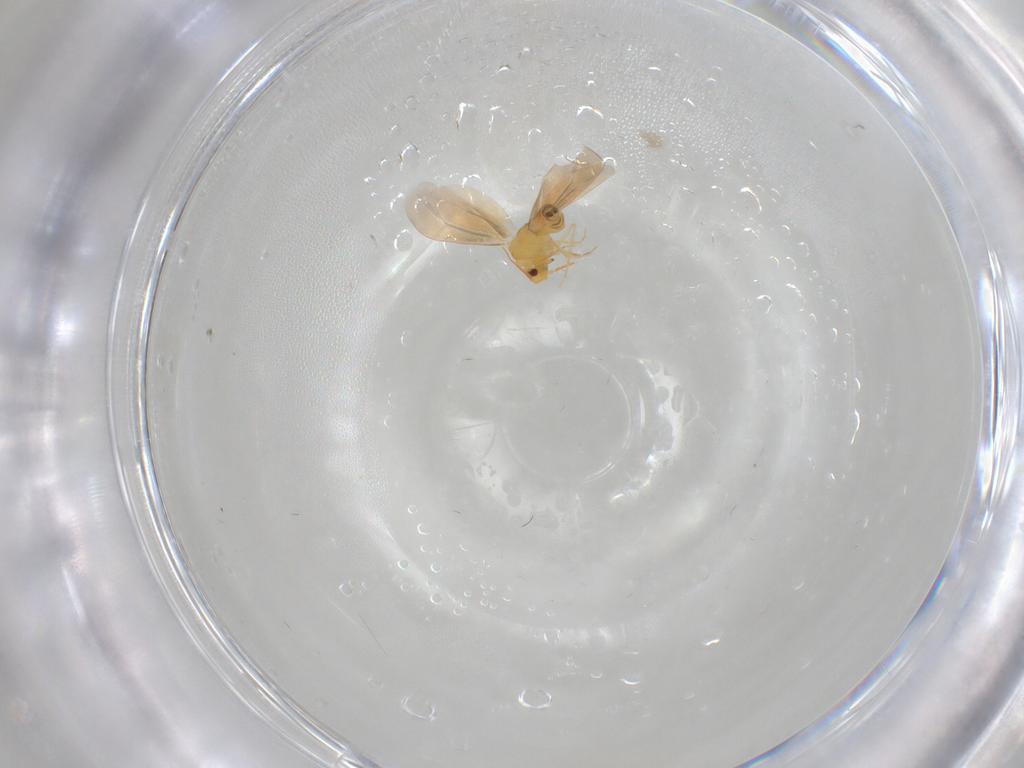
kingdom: Animalia
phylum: Arthropoda
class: Insecta
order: Hemiptera
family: Aleyrodidae
